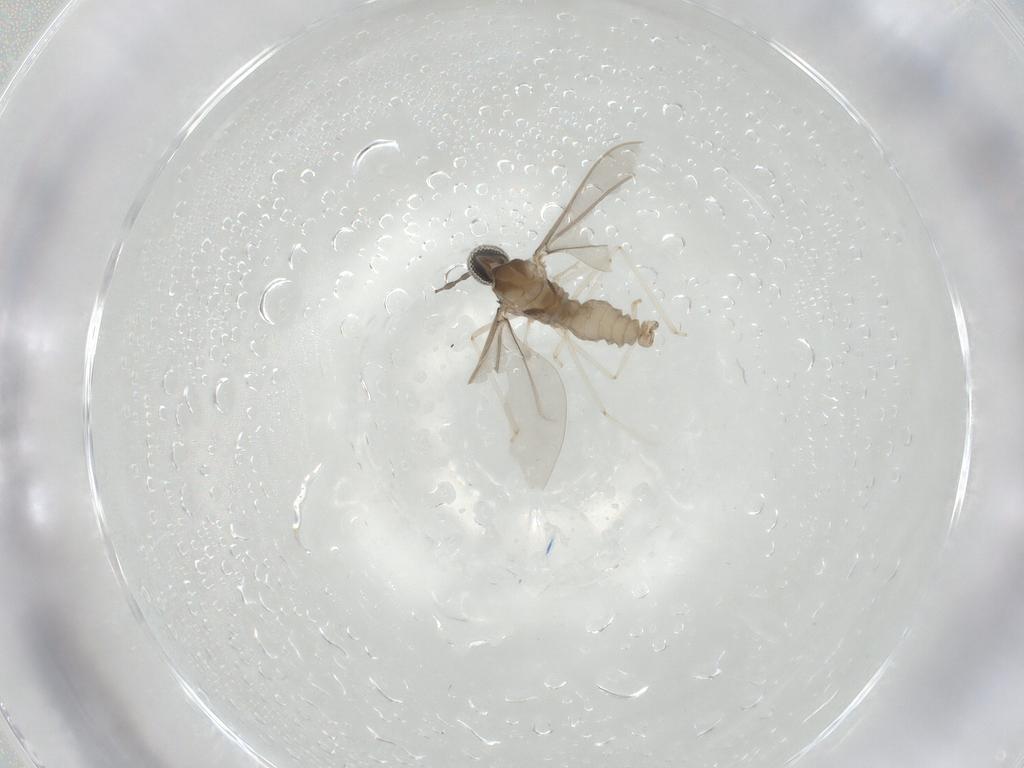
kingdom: Animalia
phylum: Arthropoda
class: Insecta
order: Diptera
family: Cecidomyiidae
